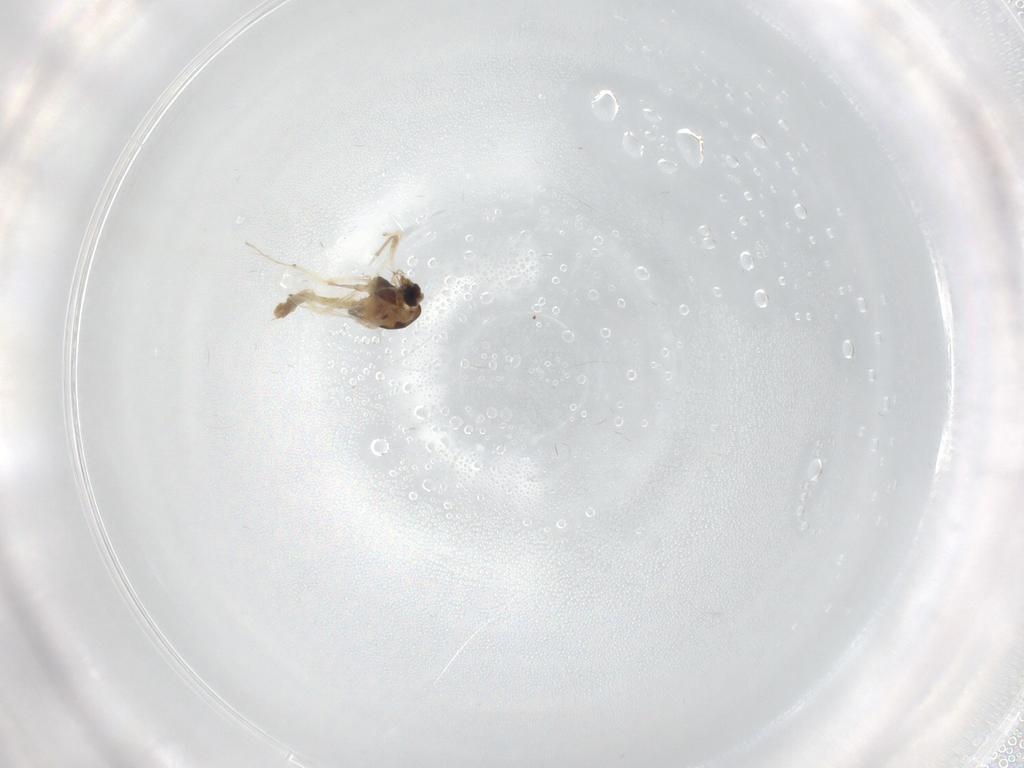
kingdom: Animalia
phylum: Arthropoda
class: Insecta
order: Diptera
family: Chironomidae
